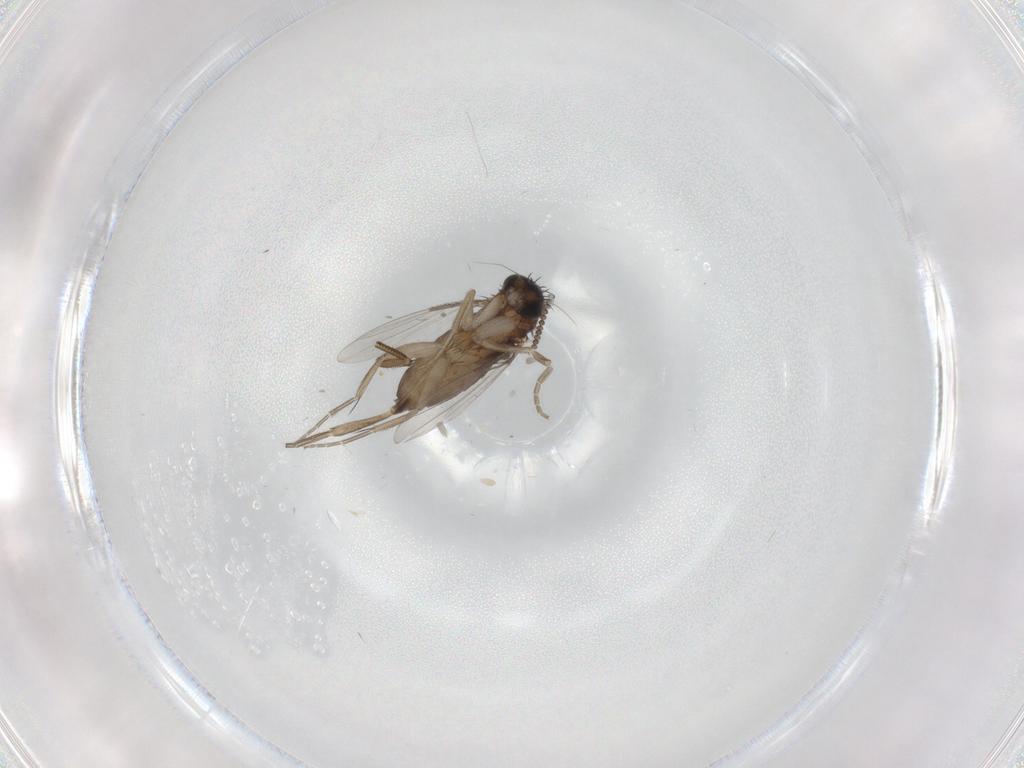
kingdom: Animalia
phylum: Arthropoda
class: Insecta
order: Diptera
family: Phoridae
